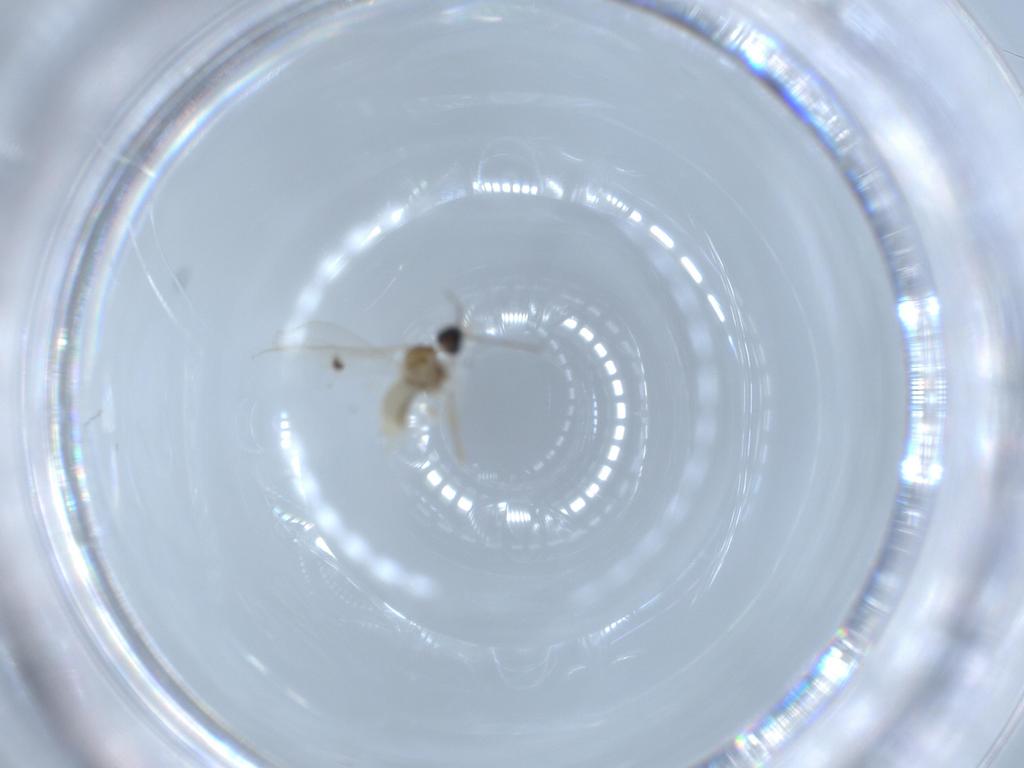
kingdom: Animalia
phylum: Arthropoda
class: Insecta
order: Diptera
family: Cecidomyiidae
